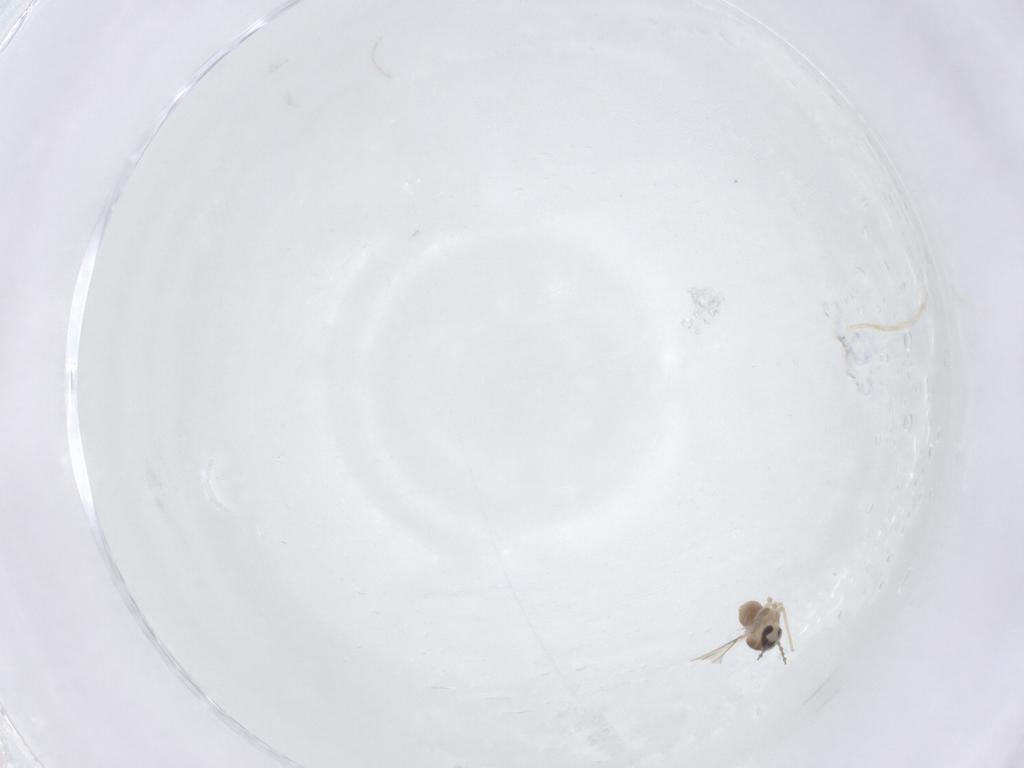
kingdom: Animalia
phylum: Arthropoda
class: Insecta
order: Diptera
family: Cecidomyiidae
